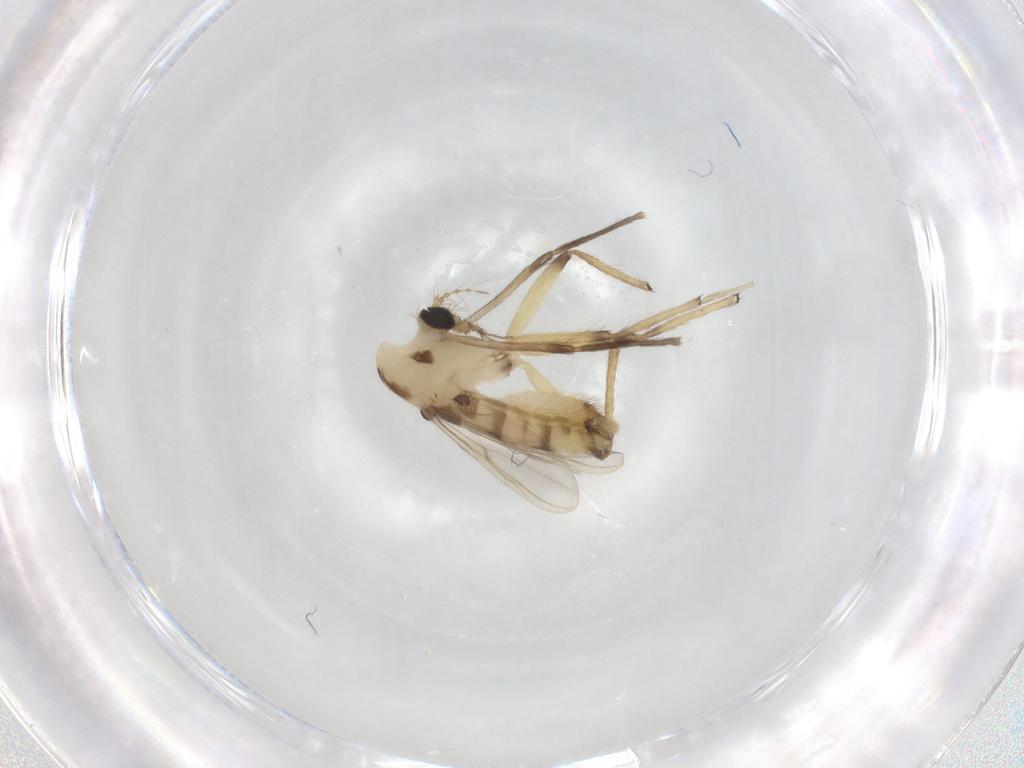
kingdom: Animalia
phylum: Arthropoda
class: Insecta
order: Diptera
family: Chironomidae
